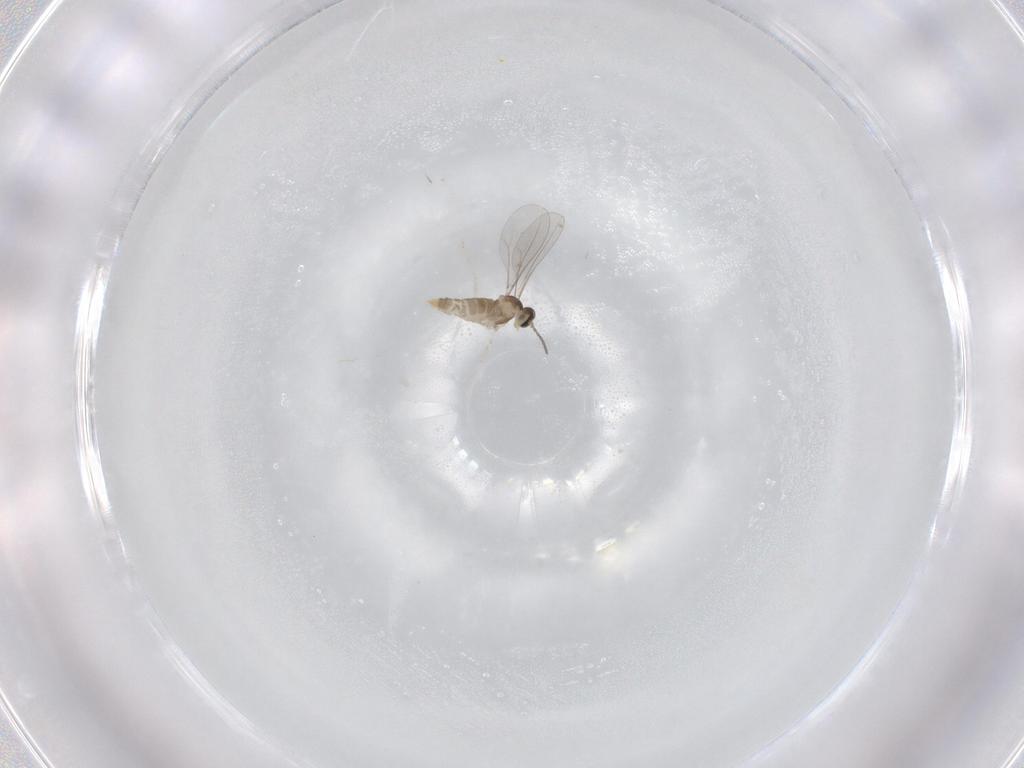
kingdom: Animalia
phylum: Arthropoda
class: Insecta
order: Diptera
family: Cecidomyiidae
